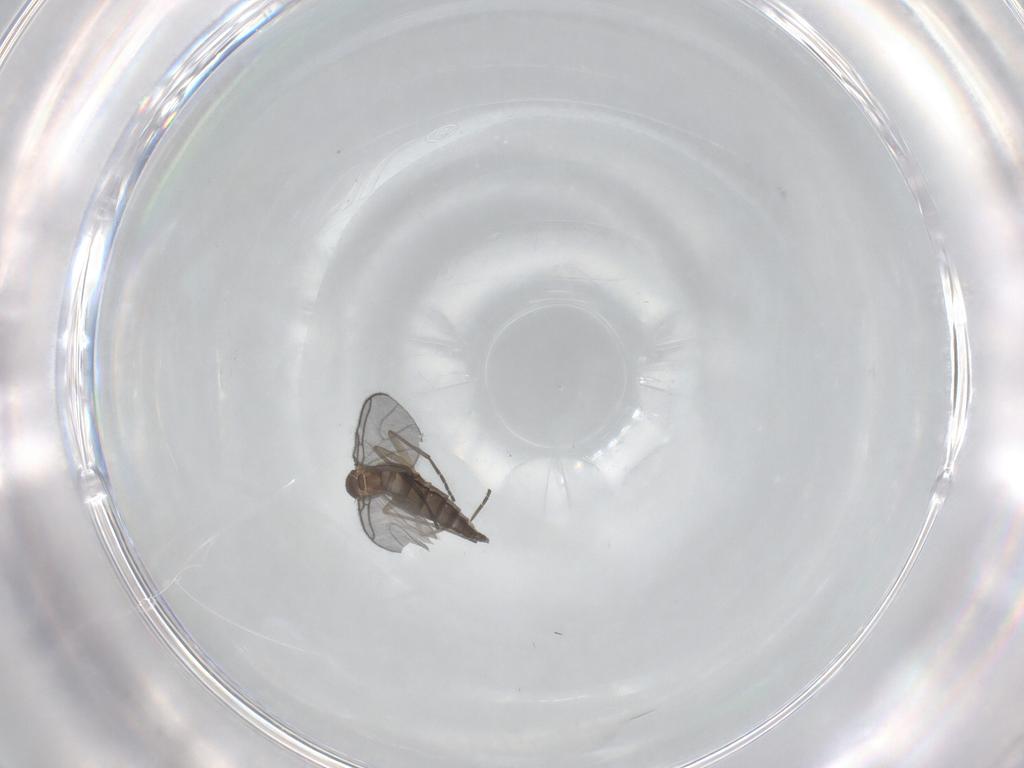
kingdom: Animalia
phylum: Arthropoda
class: Insecta
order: Diptera
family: Sciaridae
